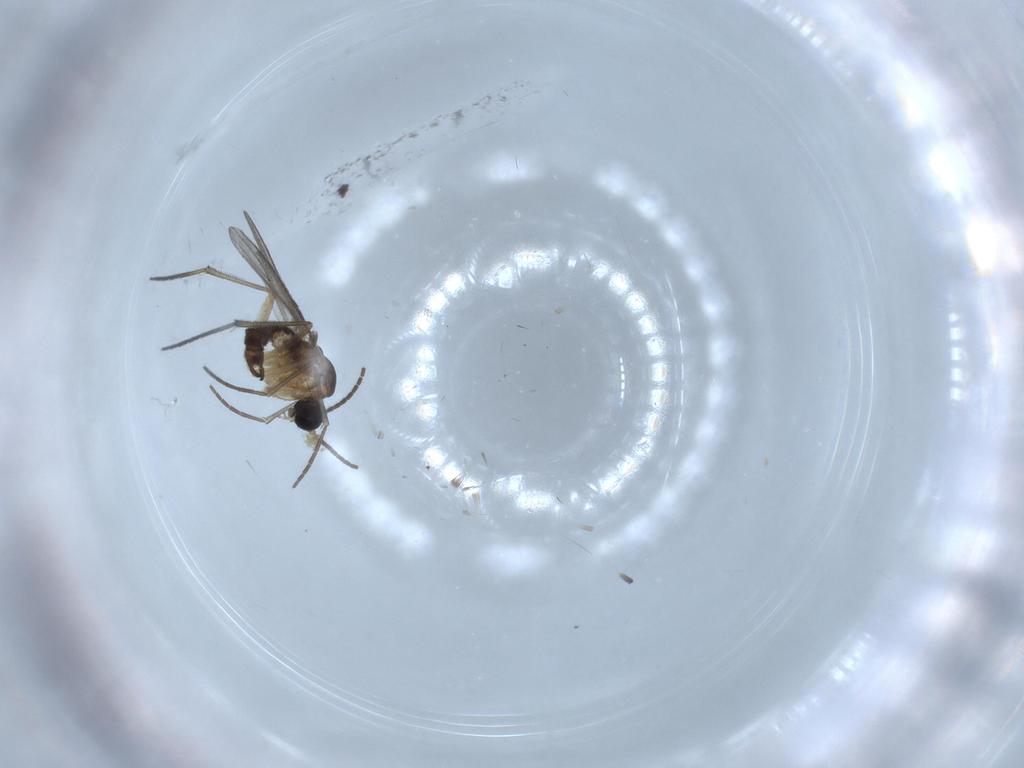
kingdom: Animalia
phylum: Arthropoda
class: Insecta
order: Diptera
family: Sciaridae
